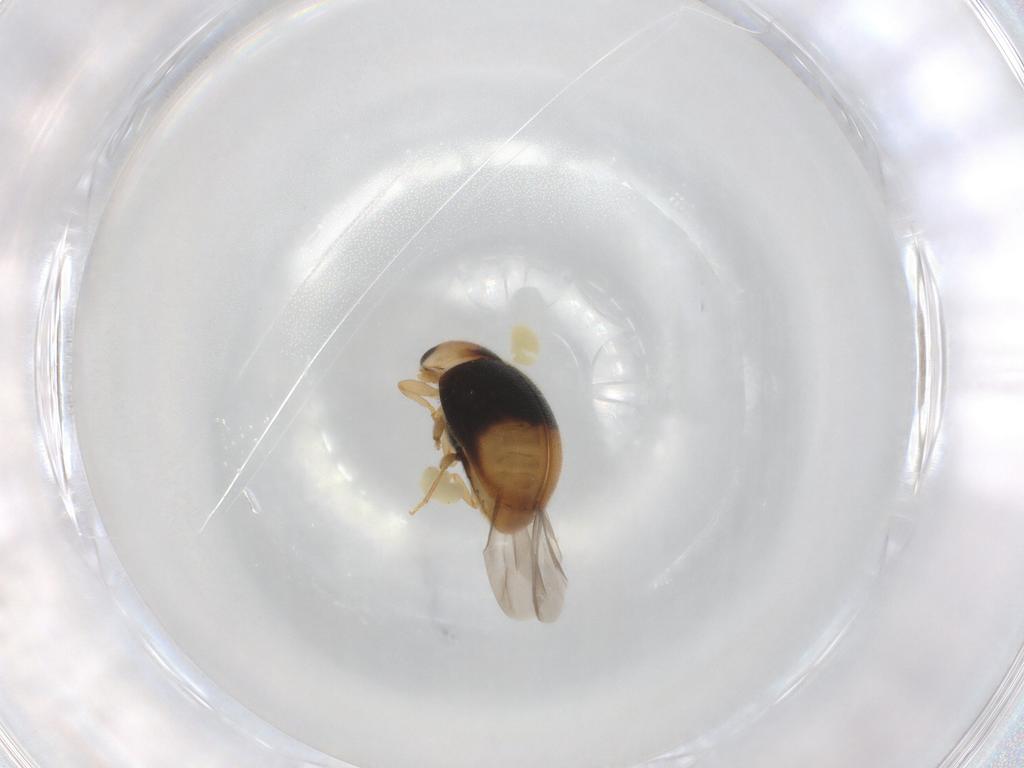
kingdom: Animalia
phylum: Arthropoda
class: Insecta
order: Coleoptera
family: Coccinellidae
